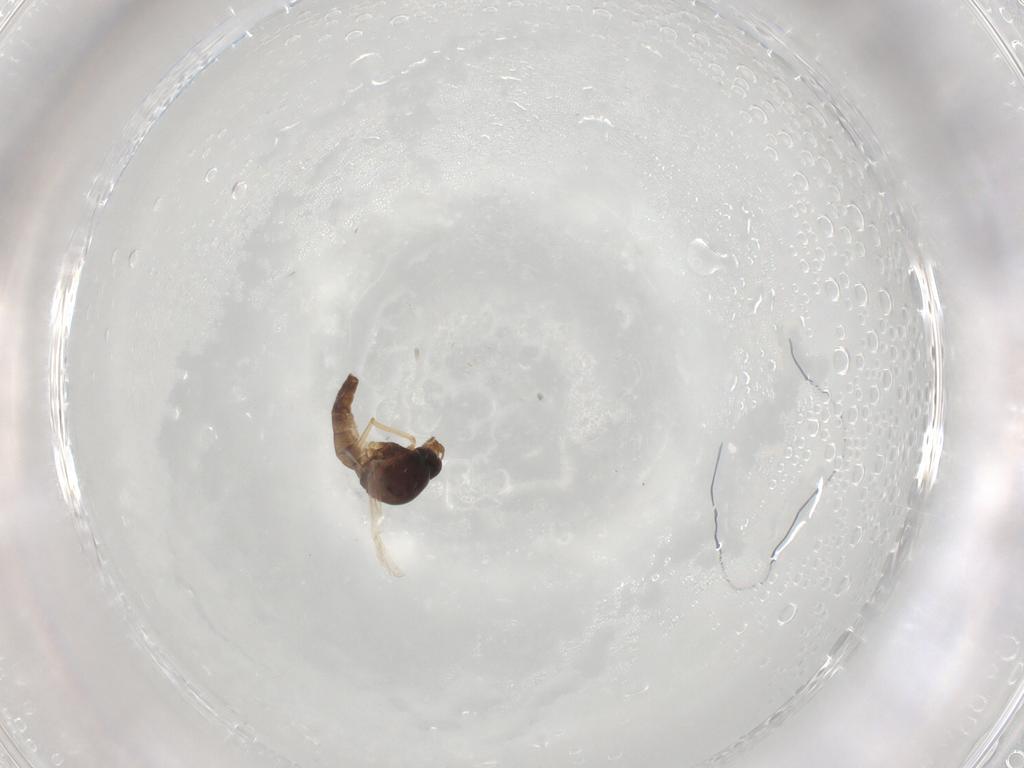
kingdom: Animalia
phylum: Arthropoda
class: Insecta
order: Diptera
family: Ceratopogonidae
